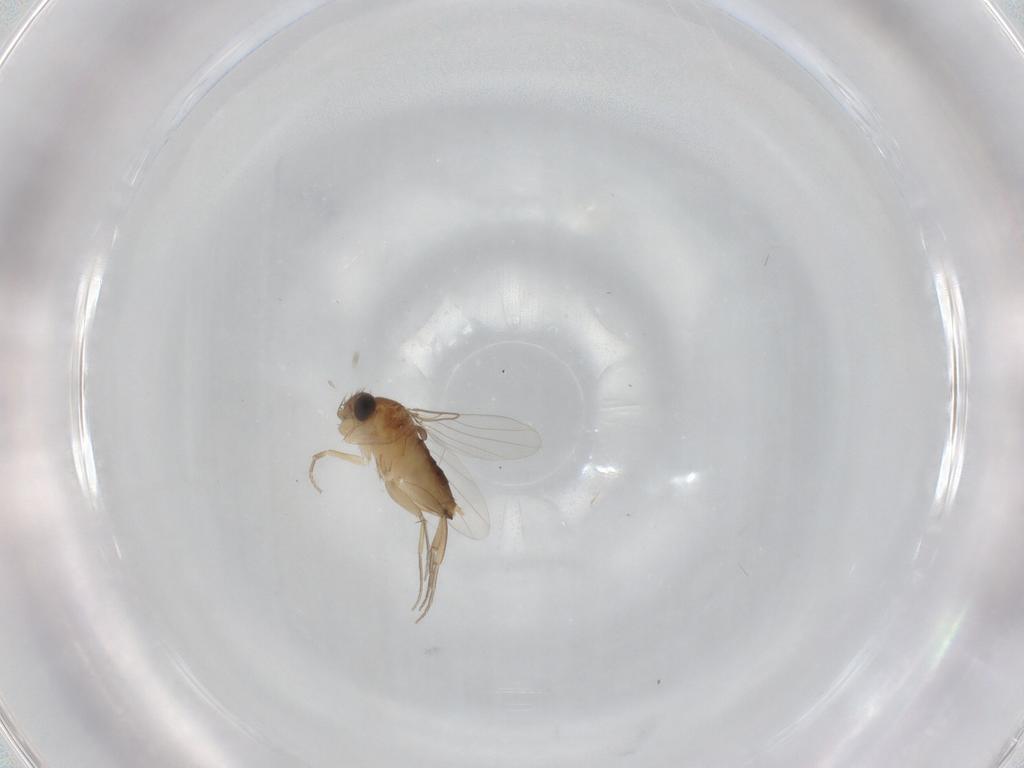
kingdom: Animalia
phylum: Arthropoda
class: Insecta
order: Diptera
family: Phoridae
